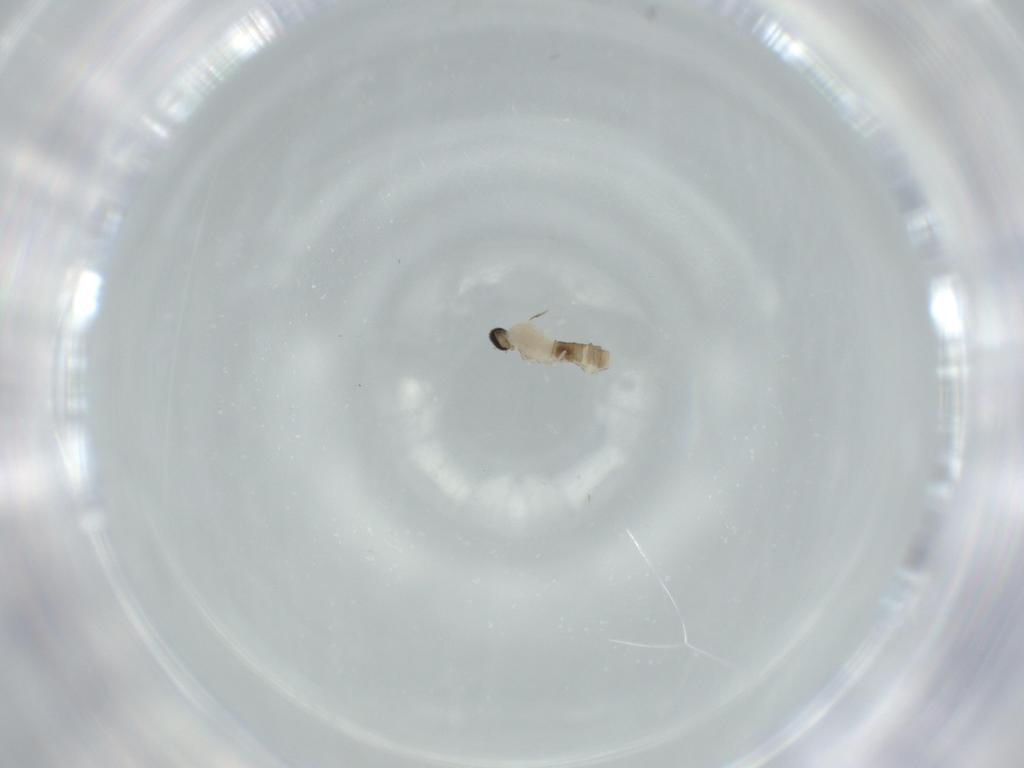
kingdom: Animalia
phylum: Arthropoda
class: Insecta
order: Diptera
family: Cecidomyiidae
